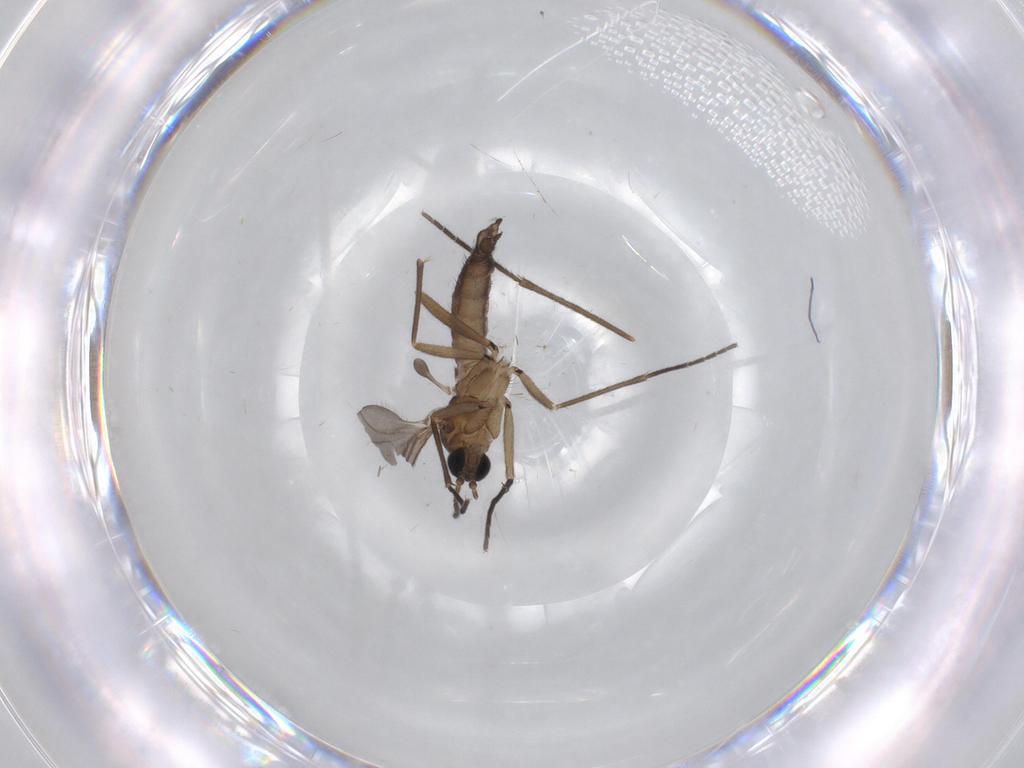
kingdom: Animalia
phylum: Arthropoda
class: Insecta
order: Diptera
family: Sciaridae
